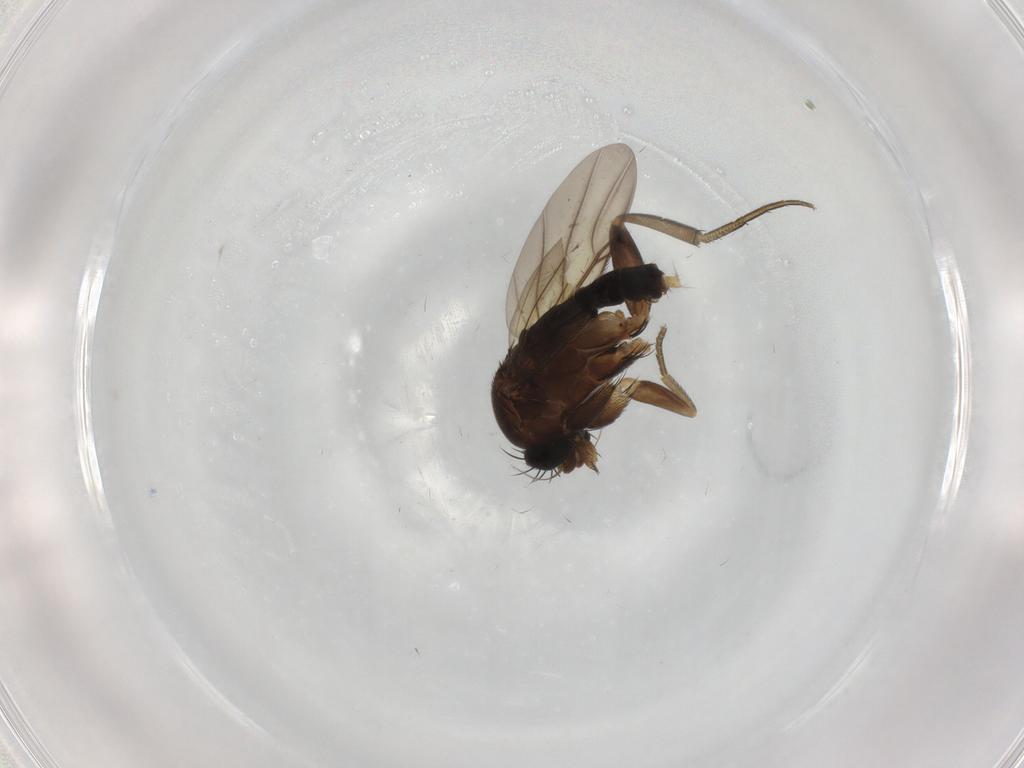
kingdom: Animalia
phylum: Arthropoda
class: Insecta
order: Diptera
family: Phoridae
